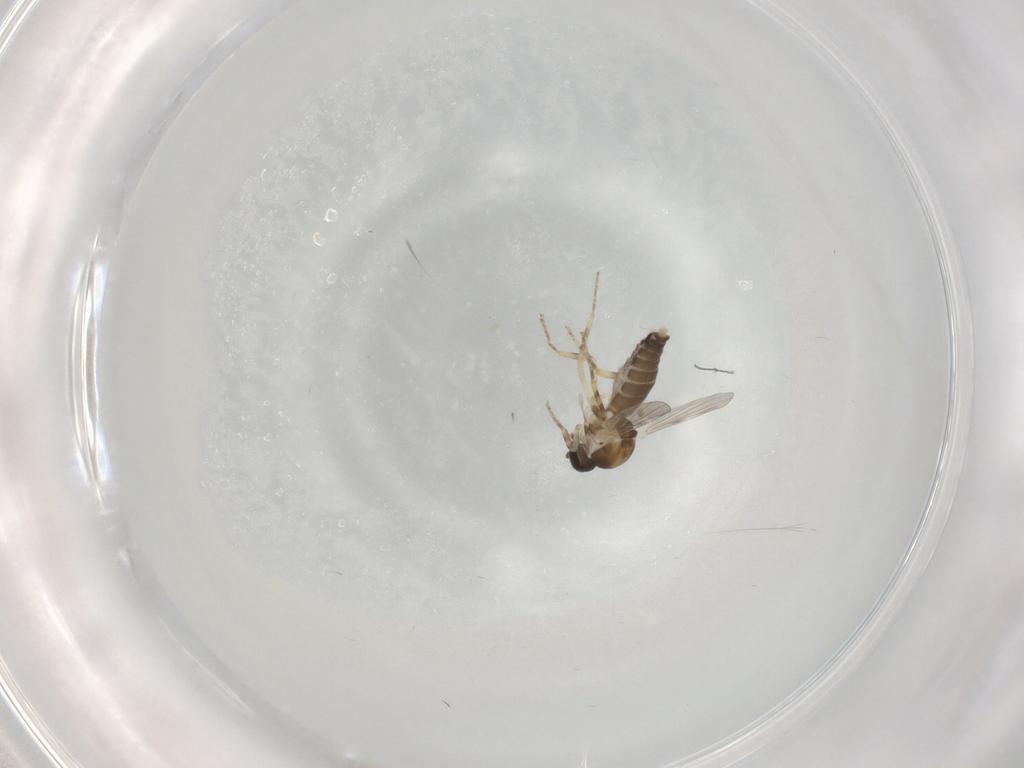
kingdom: Animalia
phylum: Arthropoda
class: Insecta
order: Diptera
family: Ceratopogonidae
